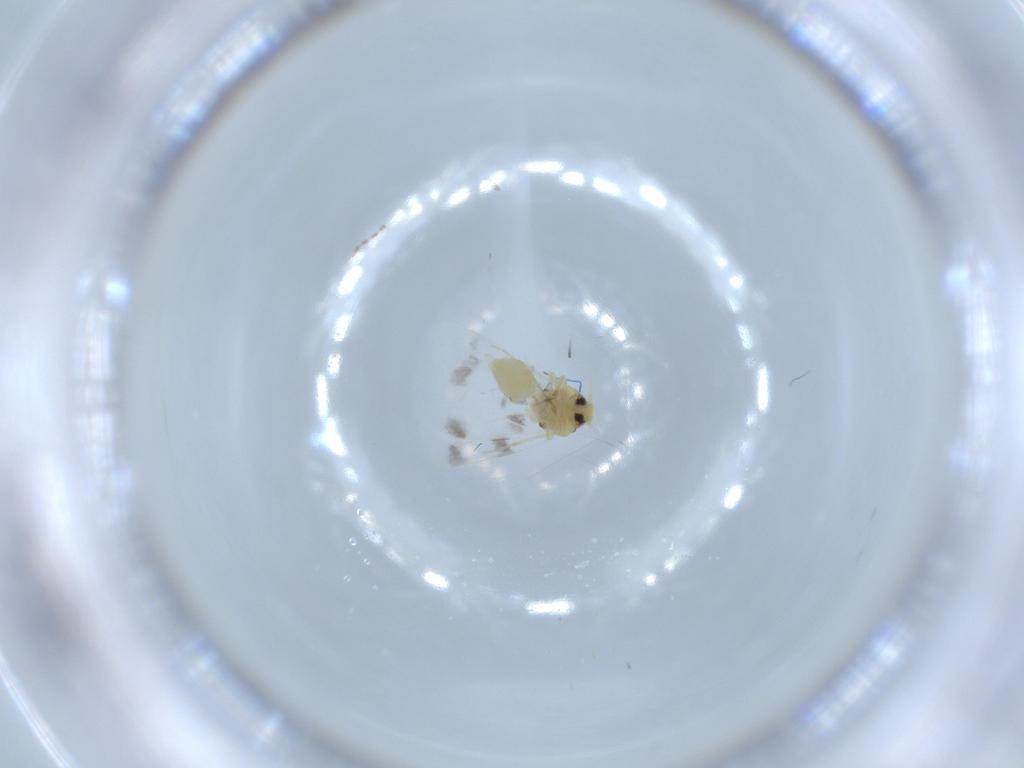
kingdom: Animalia
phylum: Arthropoda
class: Insecta
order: Hemiptera
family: Aleyrodidae
